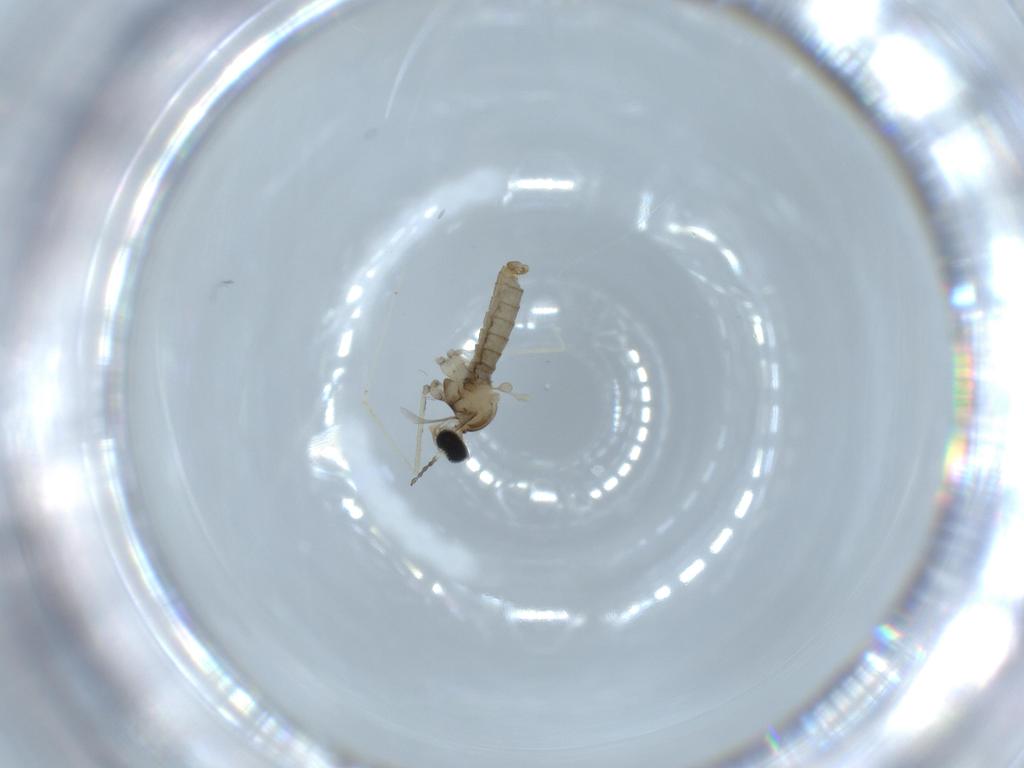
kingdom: Animalia
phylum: Arthropoda
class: Insecta
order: Diptera
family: Cecidomyiidae
